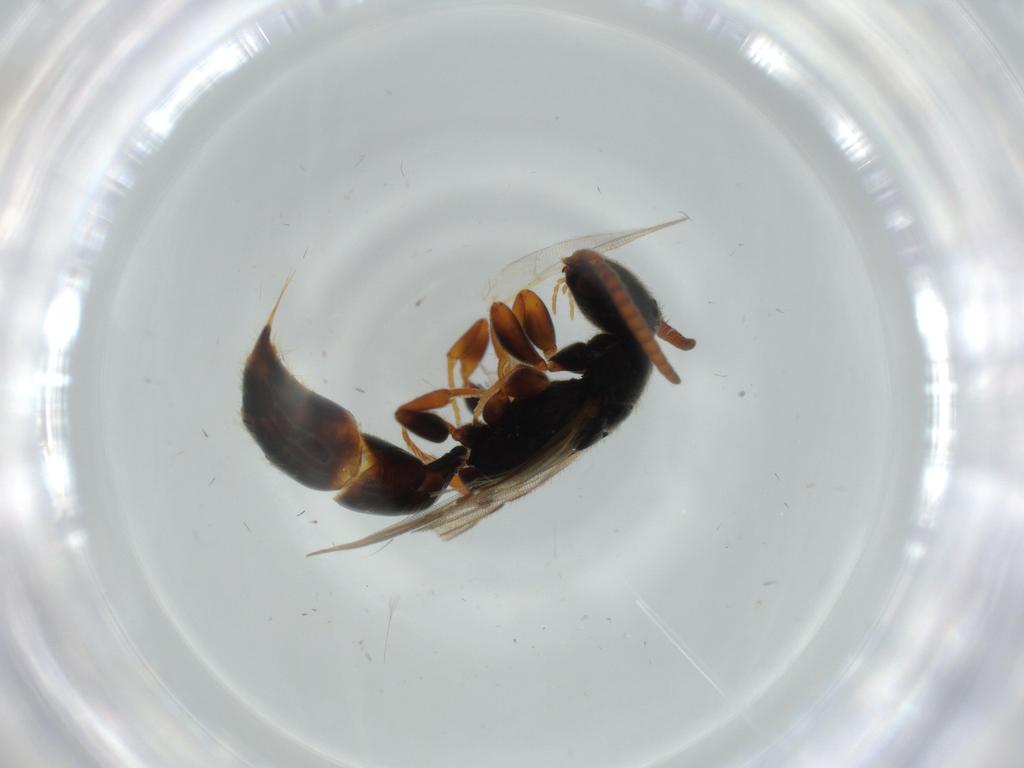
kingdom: Animalia
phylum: Arthropoda
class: Insecta
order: Hymenoptera
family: Bethylidae
